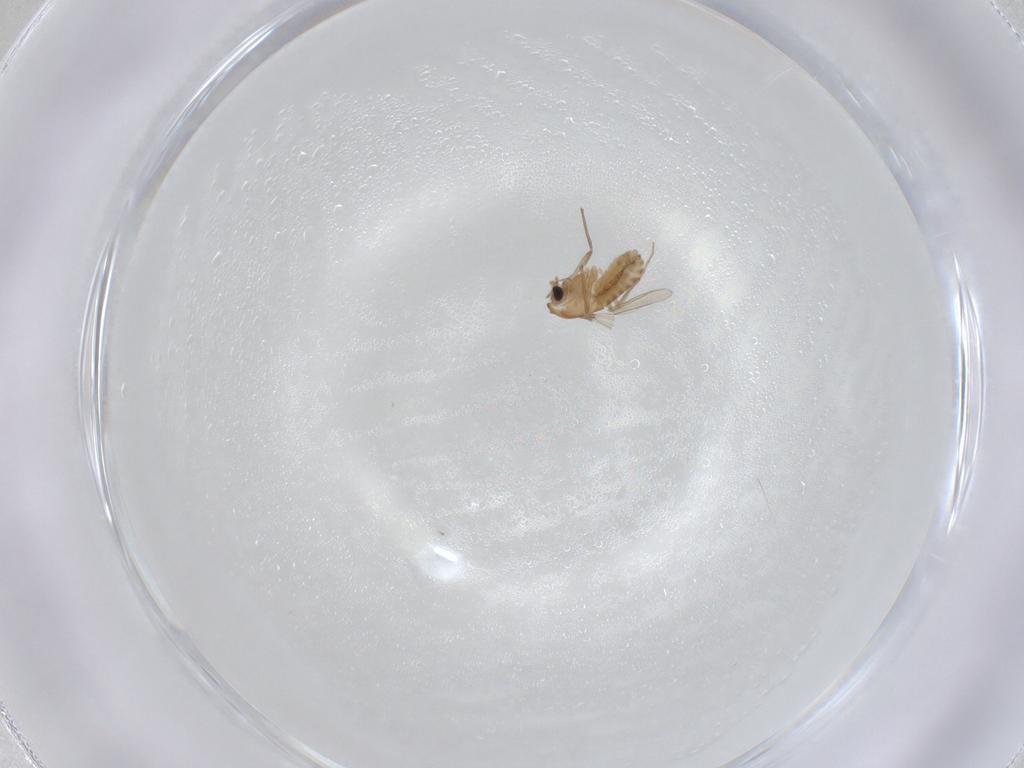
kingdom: Animalia
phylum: Arthropoda
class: Insecta
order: Diptera
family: Chironomidae
